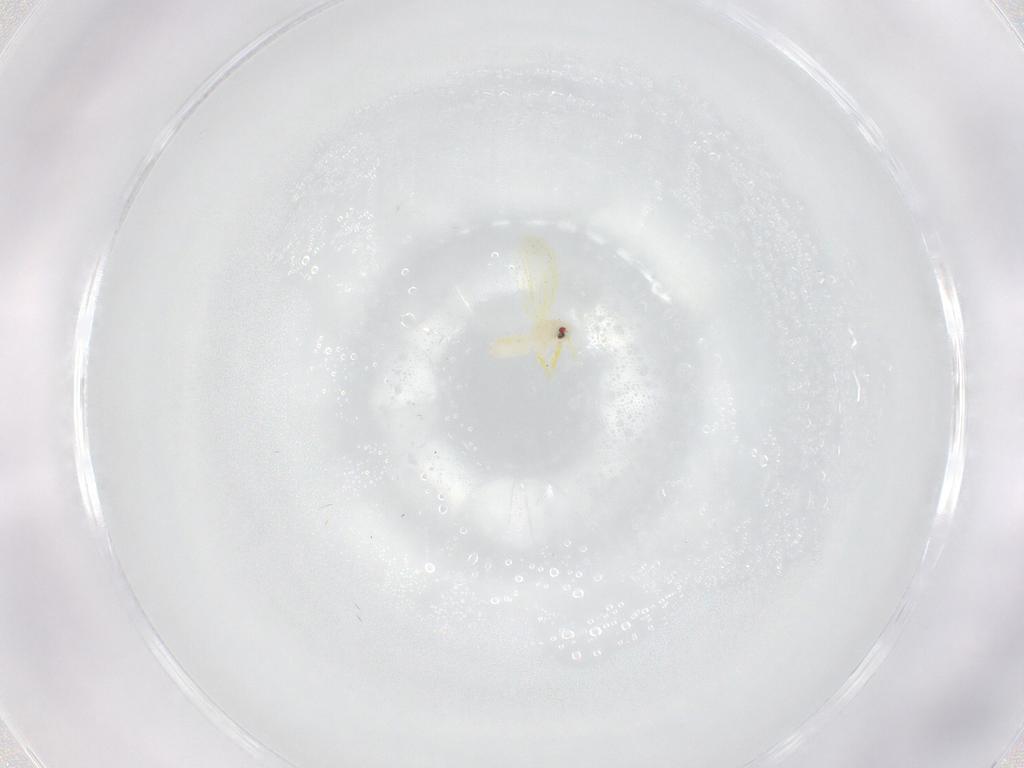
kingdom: Animalia
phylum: Arthropoda
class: Insecta
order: Hemiptera
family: Aleyrodidae
